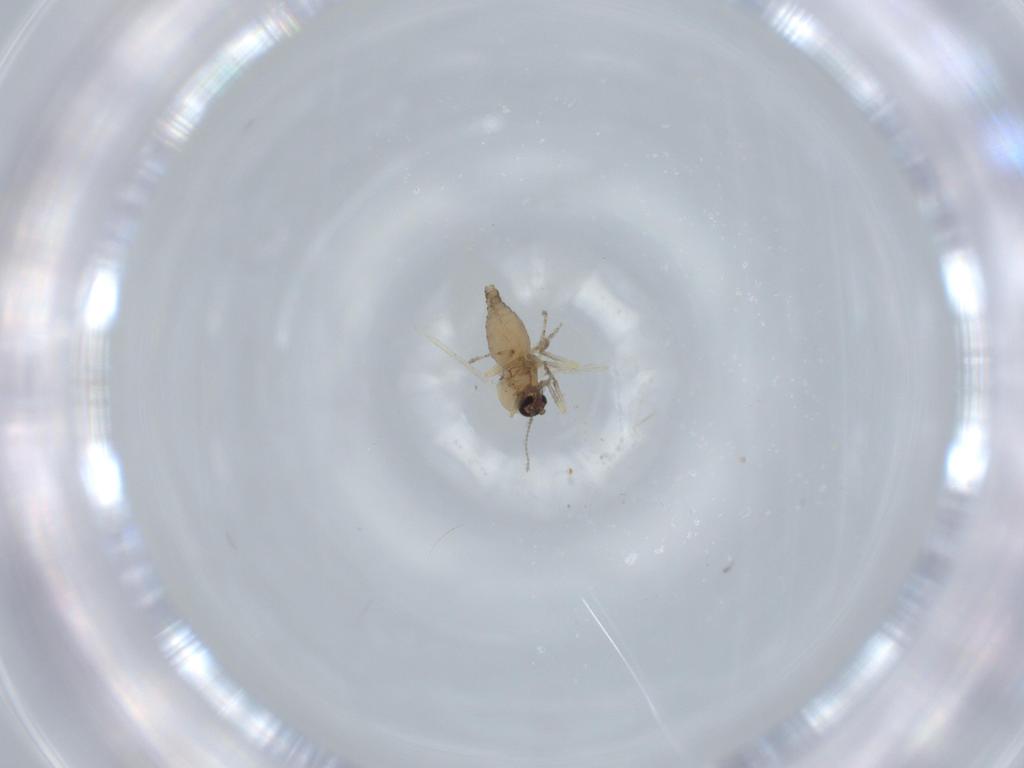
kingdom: Animalia
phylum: Arthropoda
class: Insecta
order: Diptera
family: Ceratopogonidae
